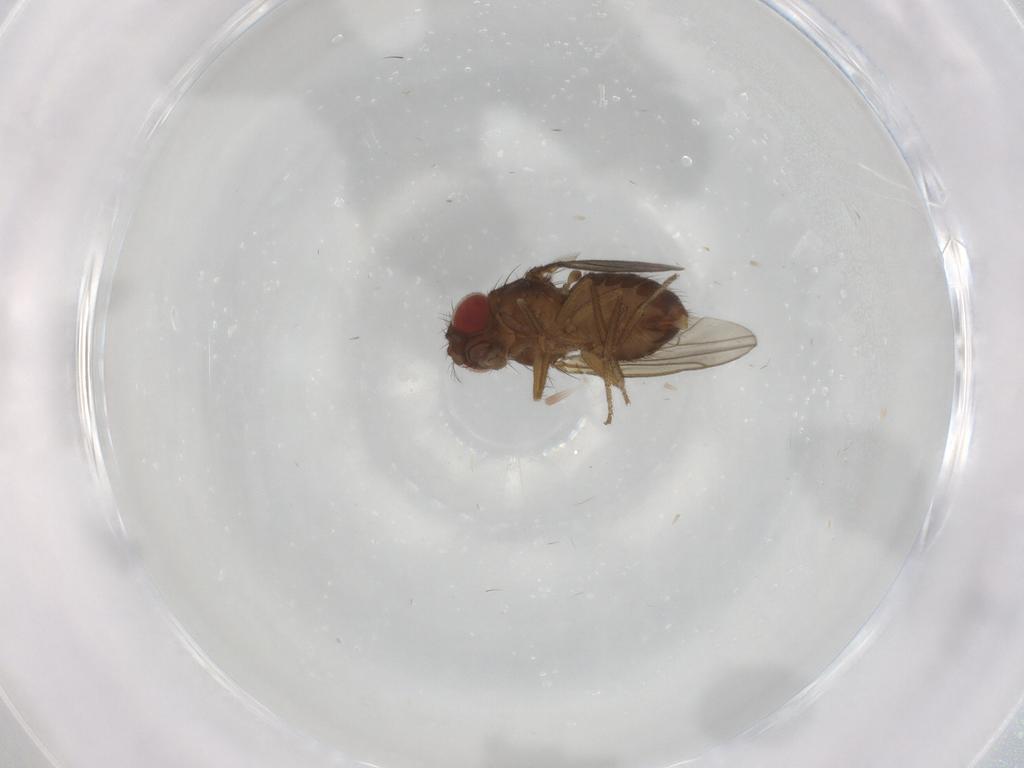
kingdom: Animalia
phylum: Arthropoda
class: Insecta
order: Diptera
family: Drosophilidae
